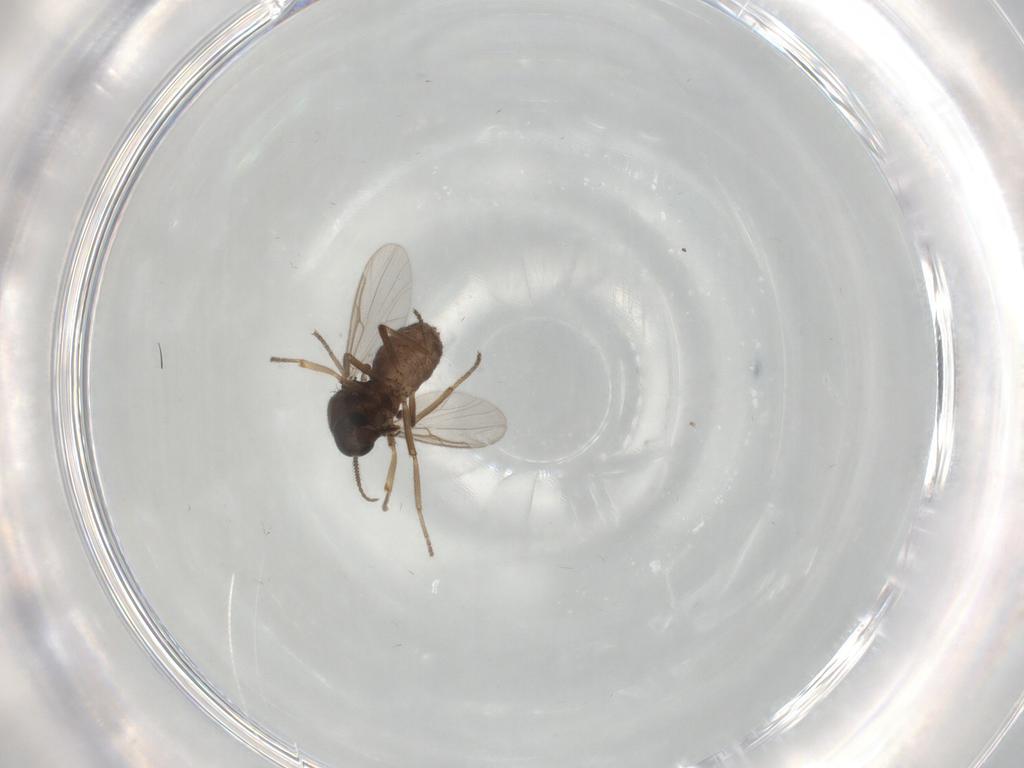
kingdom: Animalia
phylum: Arthropoda
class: Insecta
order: Diptera
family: Ceratopogonidae
